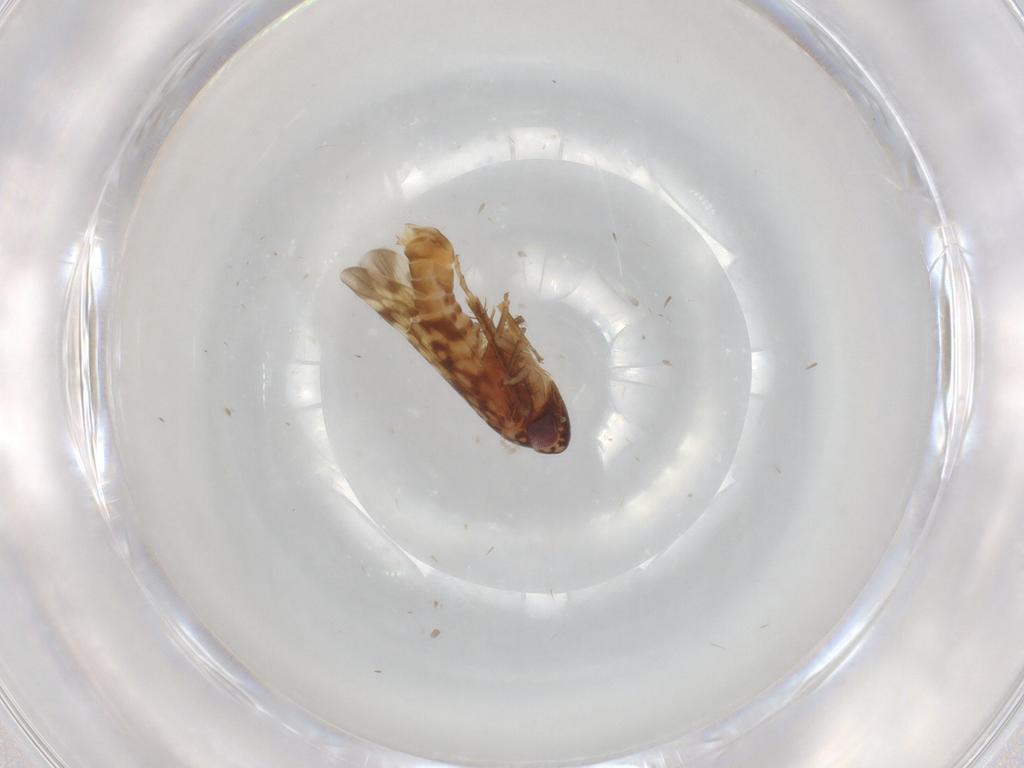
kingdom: Animalia
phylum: Arthropoda
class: Insecta
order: Hemiptera
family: Cicadellidae
